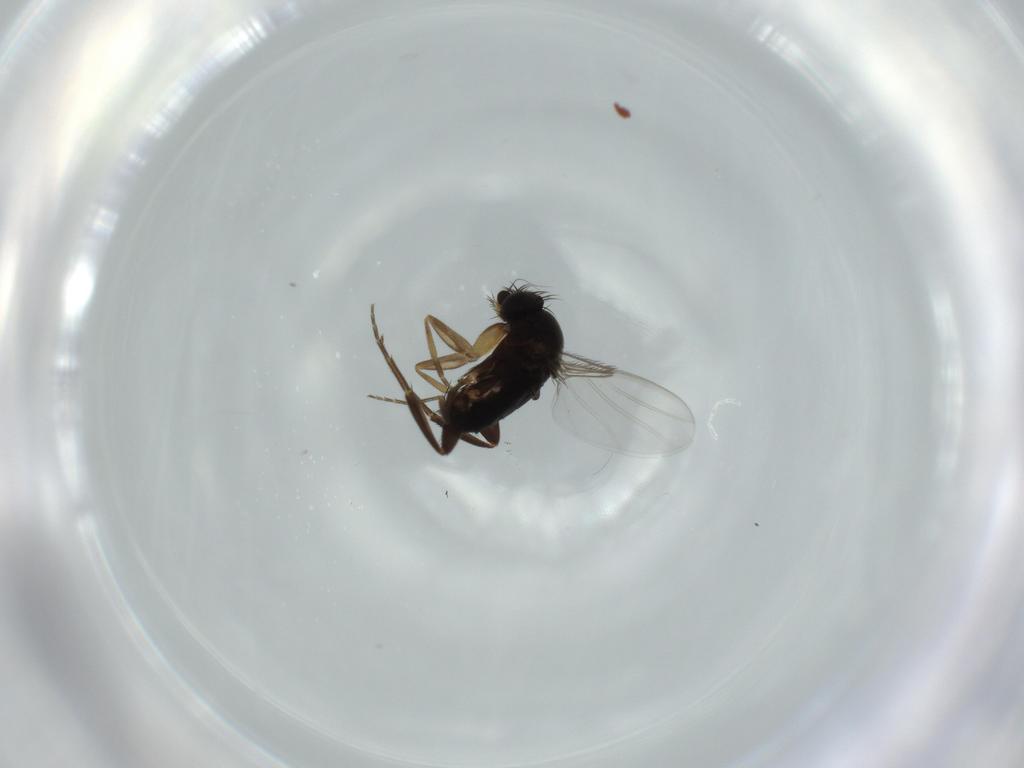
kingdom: Animalia
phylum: Arthropoda
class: Insecta
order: Diptera
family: Phoridae
